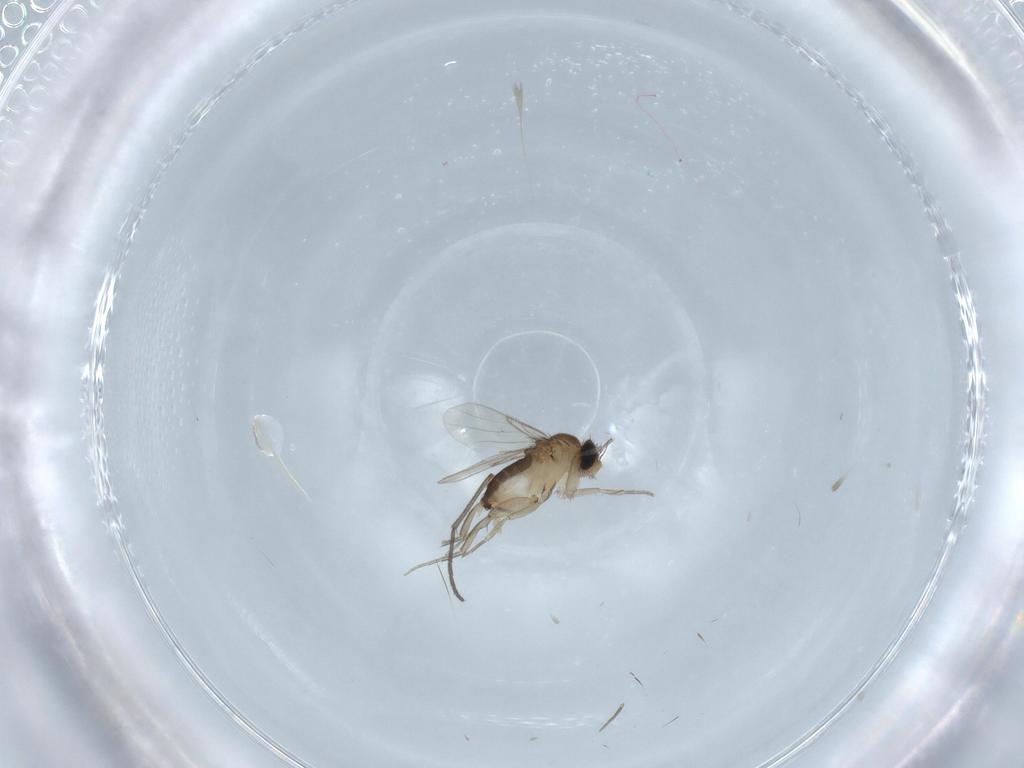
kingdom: Animalia
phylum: Arthropoda
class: Insecta
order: Diptera
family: Phoridae
